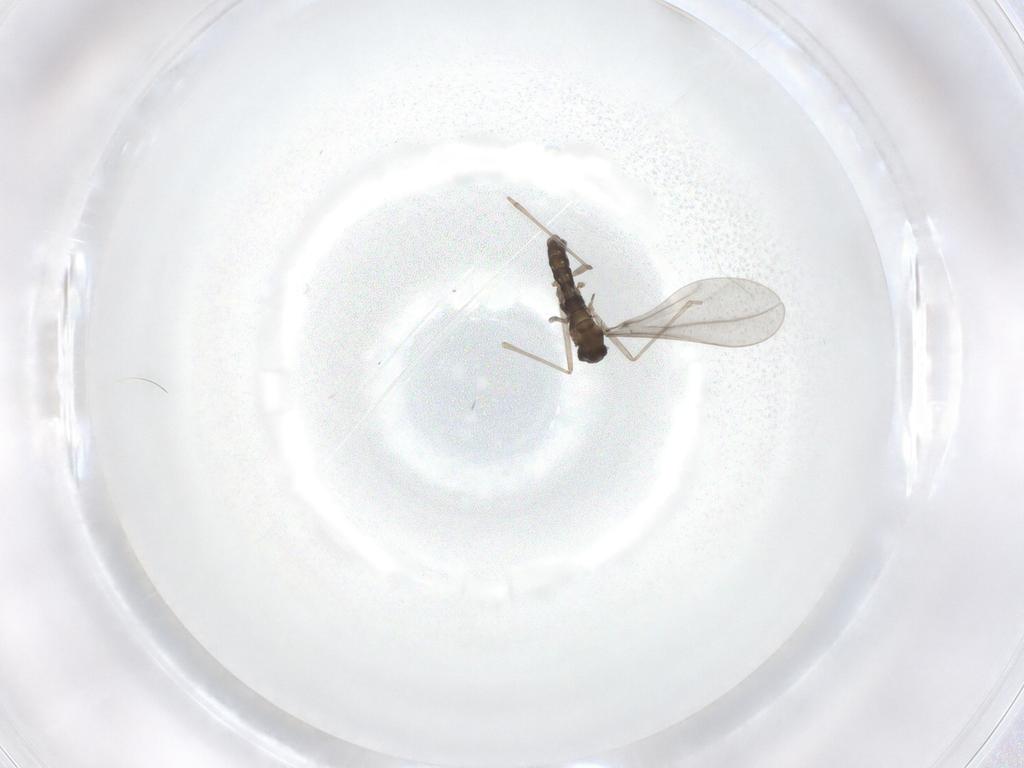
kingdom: Animalia
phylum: Arthropoda
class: Insecta
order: Diptera
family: Cecidomyiidae
